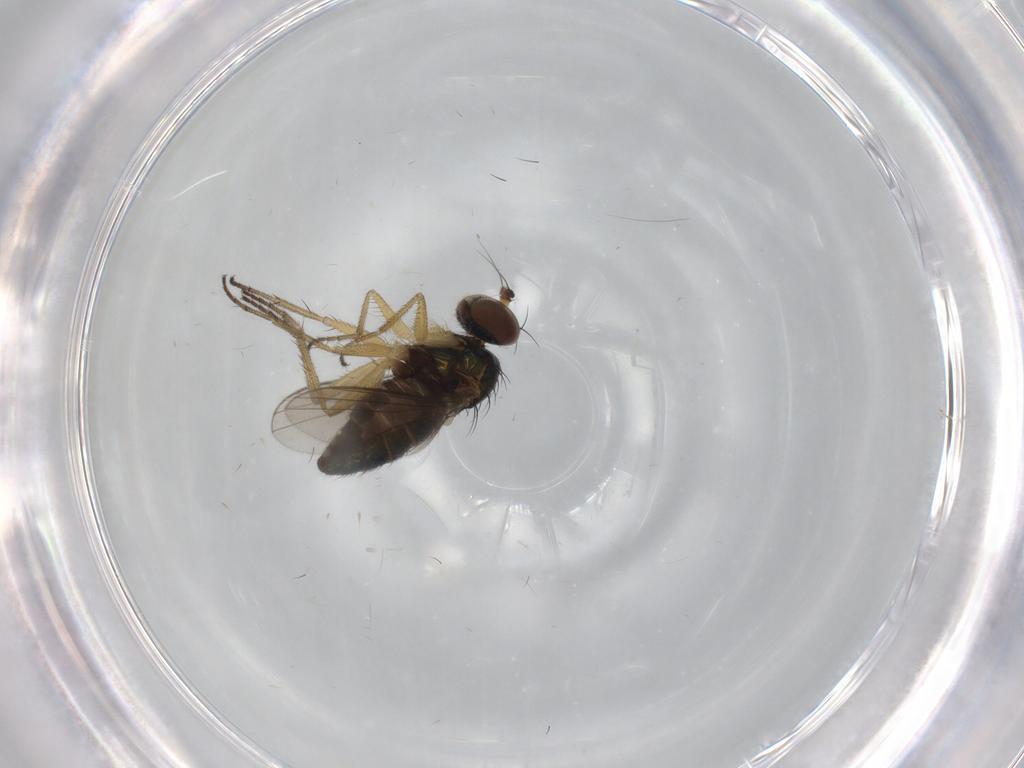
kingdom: Animalia
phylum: Arthropoda
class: Insecta
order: Diptera
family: Dolichopodidae
